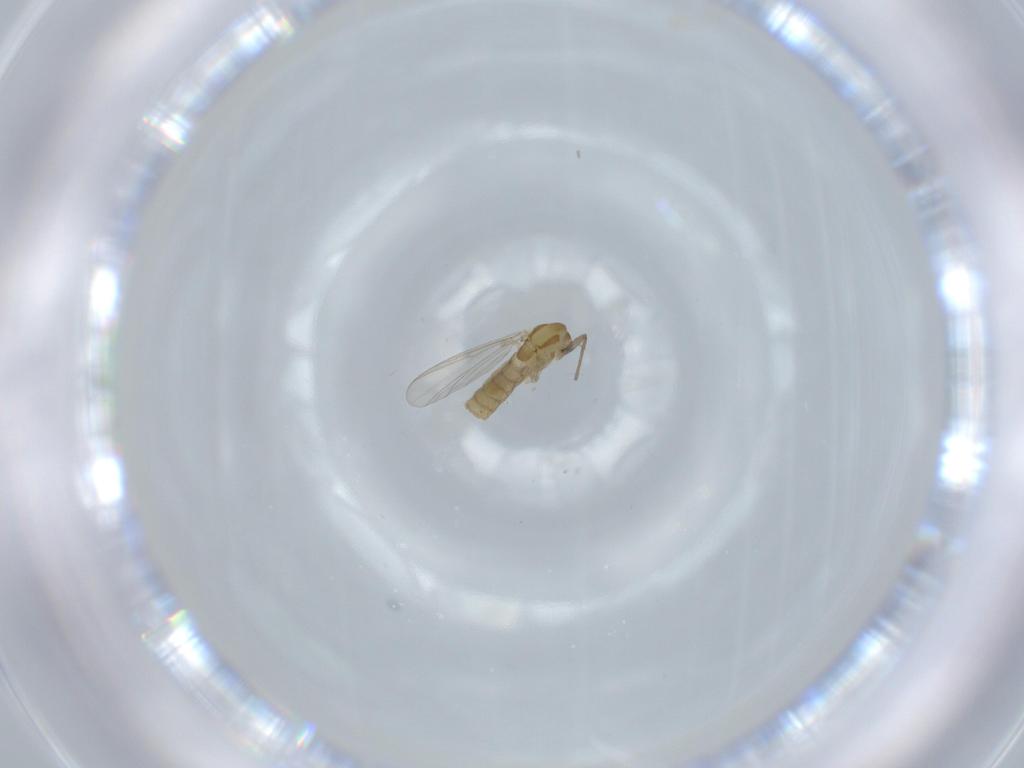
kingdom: Animalia
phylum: Arthropoda
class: Insecta
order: Diptera
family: Chironomidae
